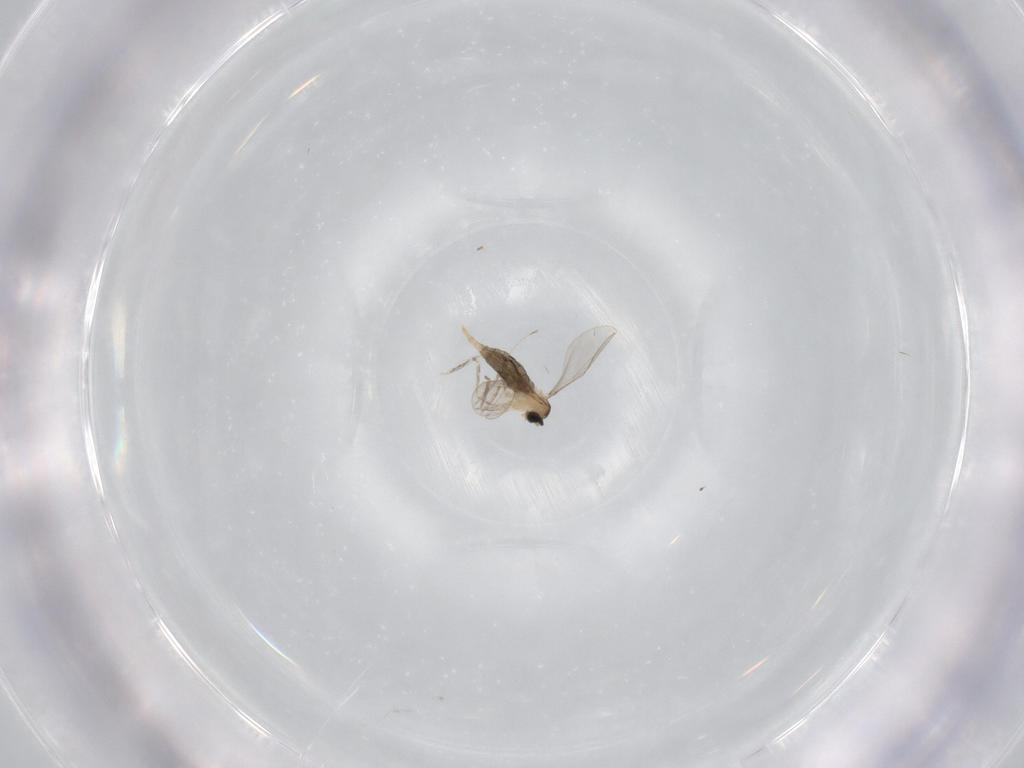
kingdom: Animalia
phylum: Arthropoda
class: Insecta
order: Diptera
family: Cecidomyiidae
